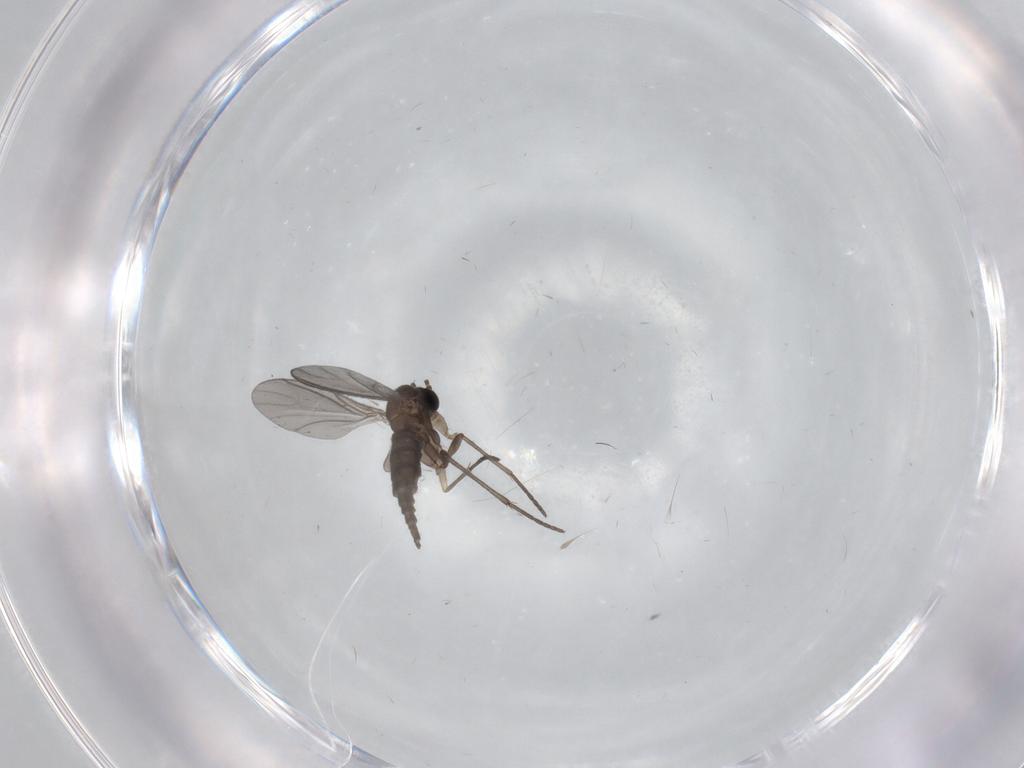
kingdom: Animalia
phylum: Arthropoda
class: Insecta
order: Diptera
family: Sciaridae
